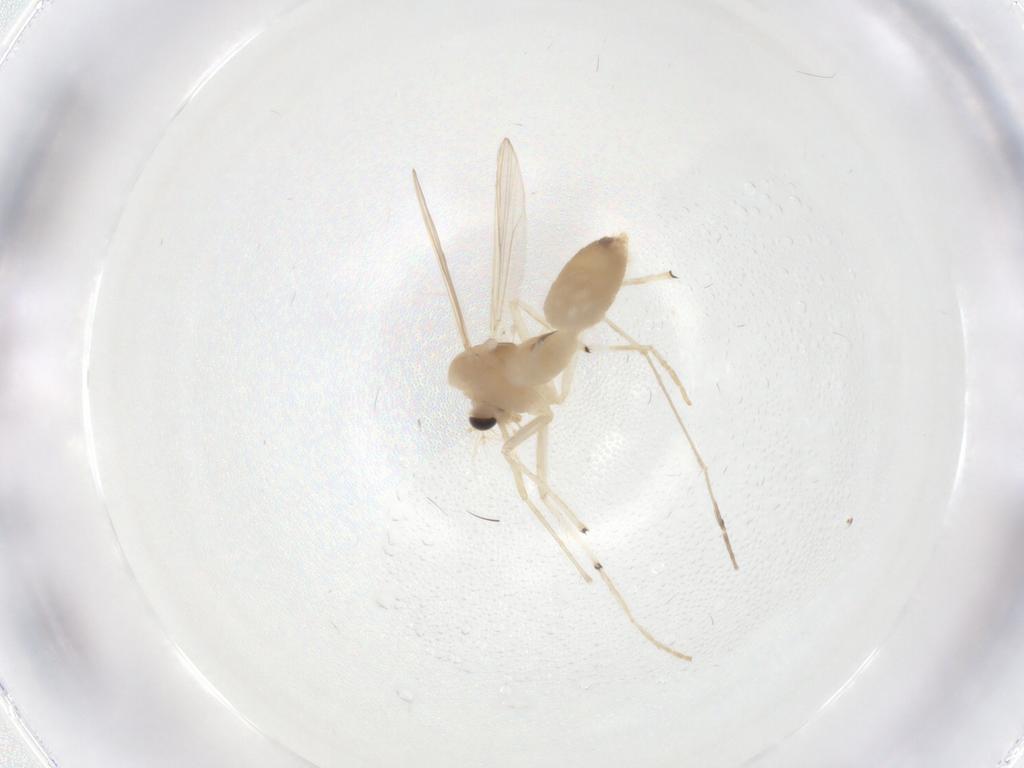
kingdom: Animalia
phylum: Arthropoda
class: Insecta
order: Diptera
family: Chironomidae
